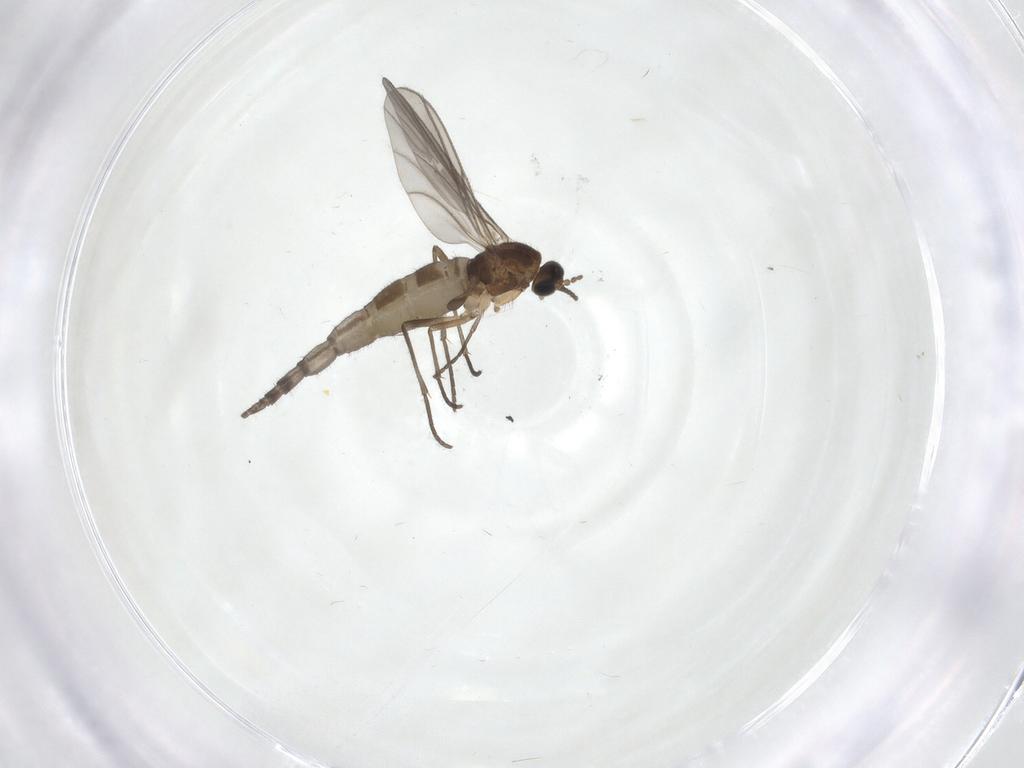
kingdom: Animalia
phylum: Arthropoda
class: Insecta
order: Diptera
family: Sciaridae
